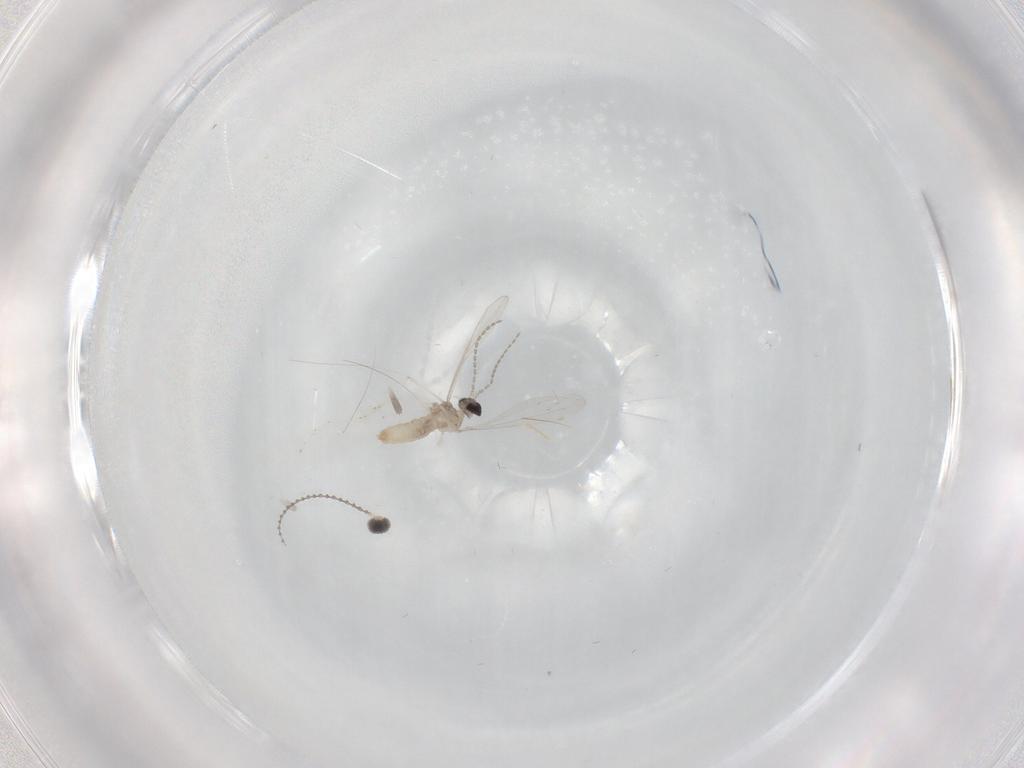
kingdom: Animalia
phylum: Arthropoda
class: Insecta
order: Diptera
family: Cecidomyiidae
